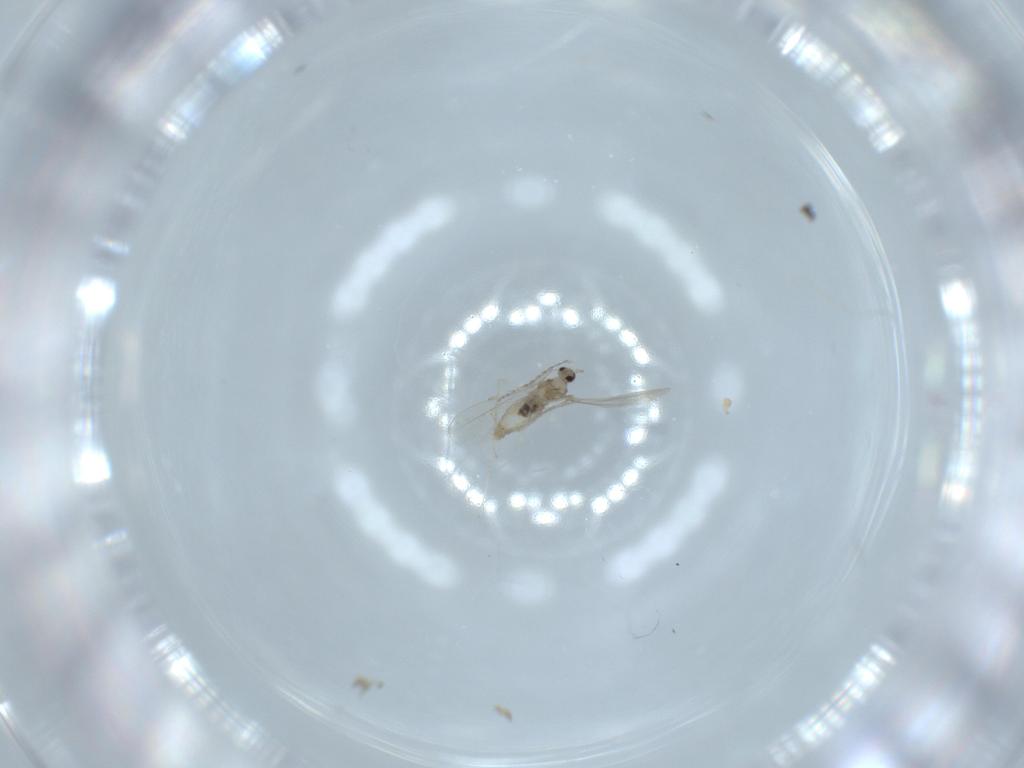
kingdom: Animalia
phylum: Arthropoda
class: Insecta
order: Diptera
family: Cecidomyiidae
